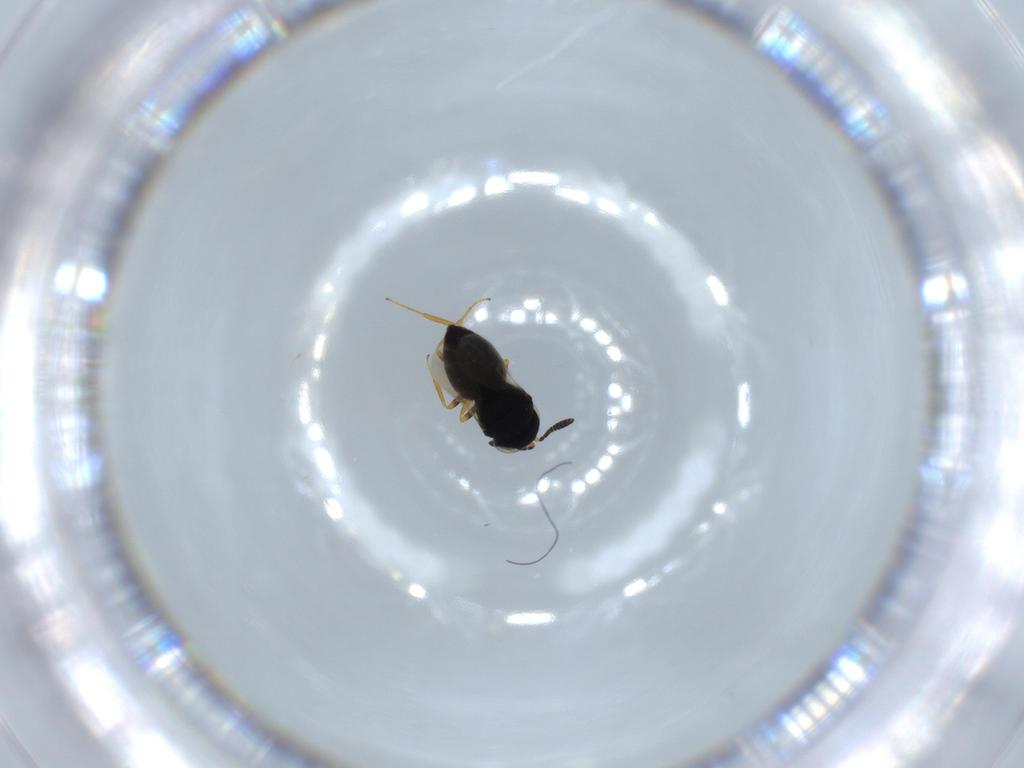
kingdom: Animalia
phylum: Arthropoda
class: Insecta
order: Hymenoptera
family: Scelionidae
